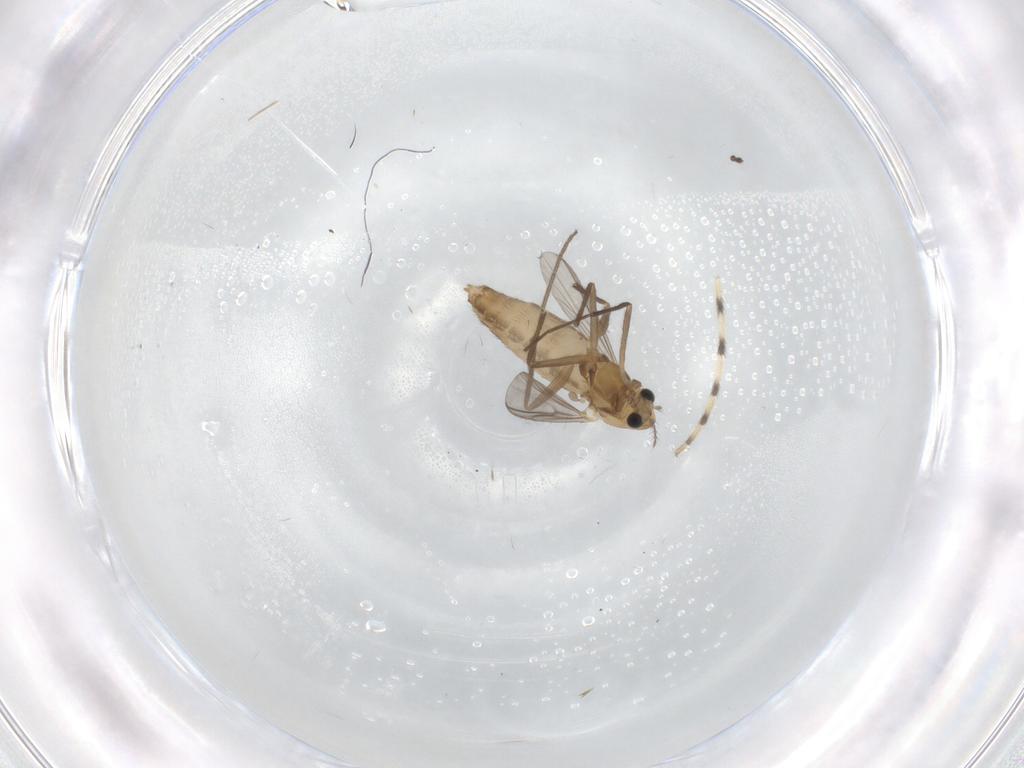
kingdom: Animalia
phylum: Arthropoda
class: Insecta
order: Diptera
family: Chironomidae
